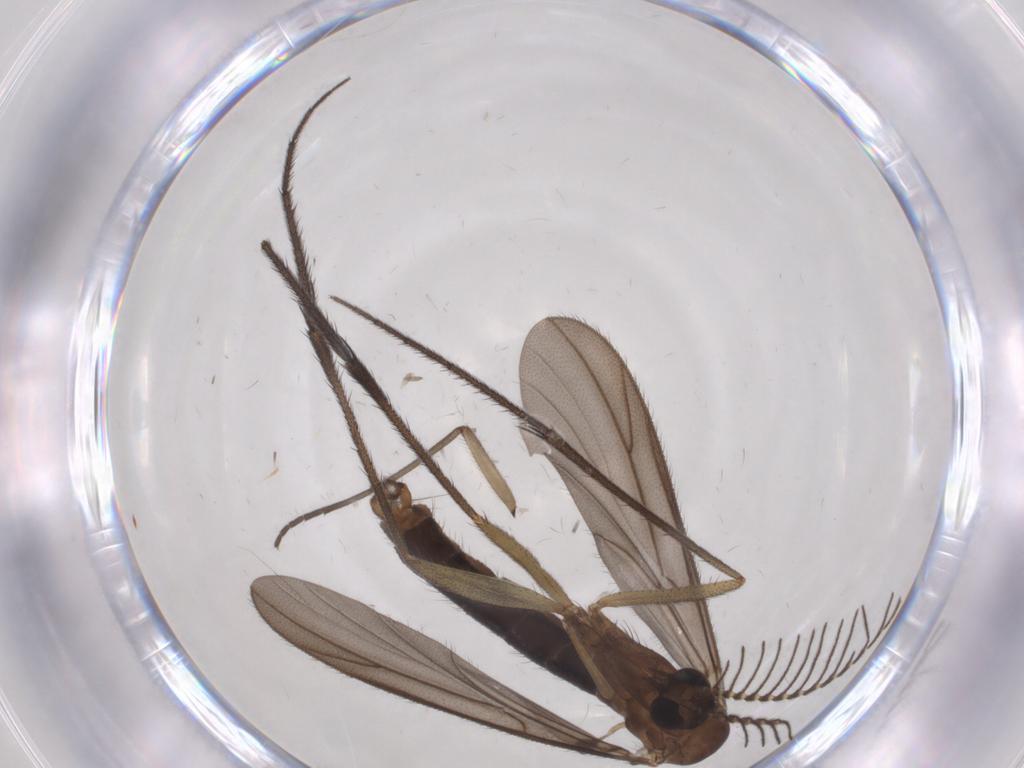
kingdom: Animalia
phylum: Arthropoda
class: Insecta
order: Diptera
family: Ditomyiidae
